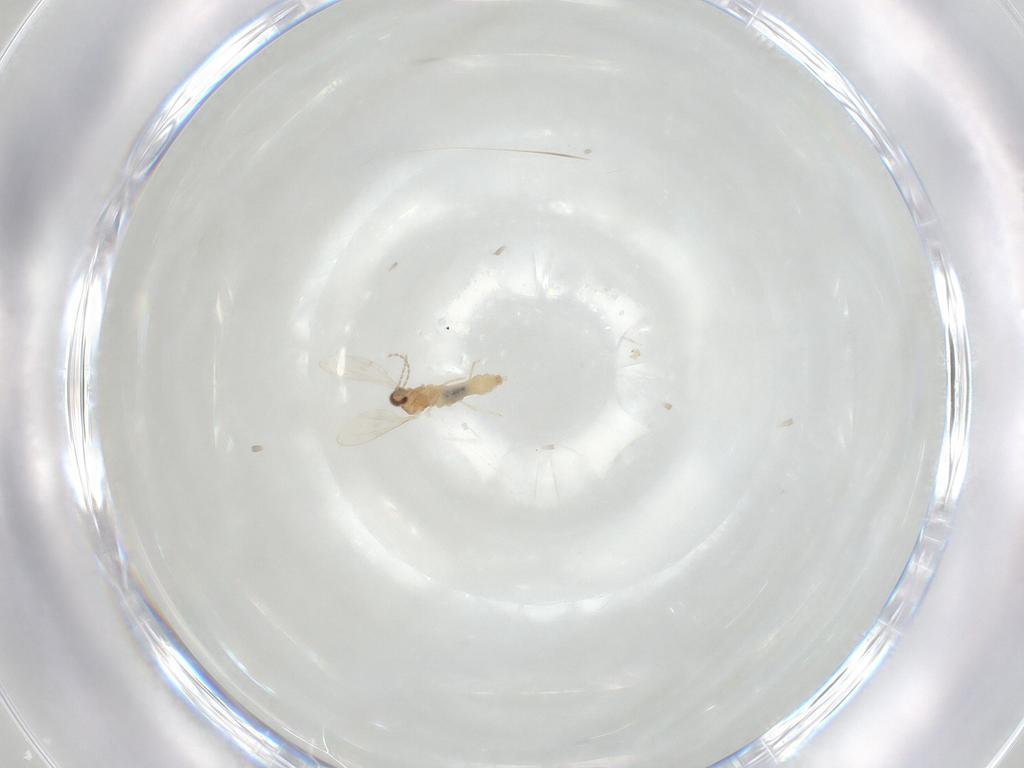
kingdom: Animalia
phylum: Arthropoda
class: Insecta
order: Diptera
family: Cecidomyiidae
